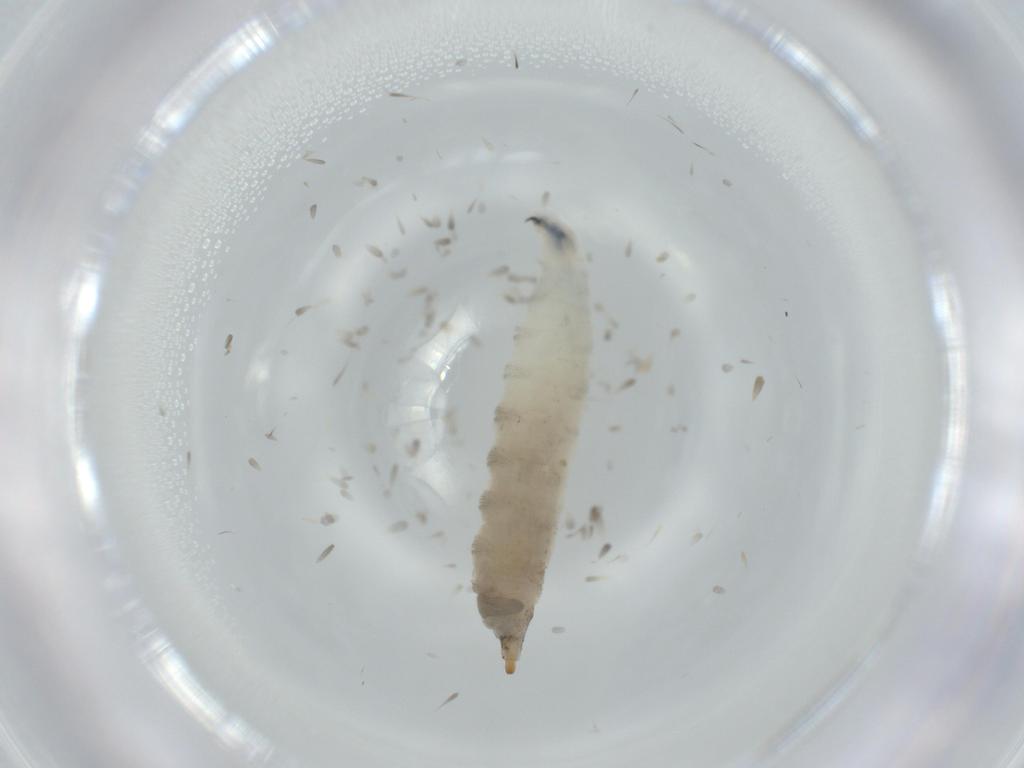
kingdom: Animalia
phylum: Arthropoda
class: Insecta
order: Diptera
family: Drosophilidae
